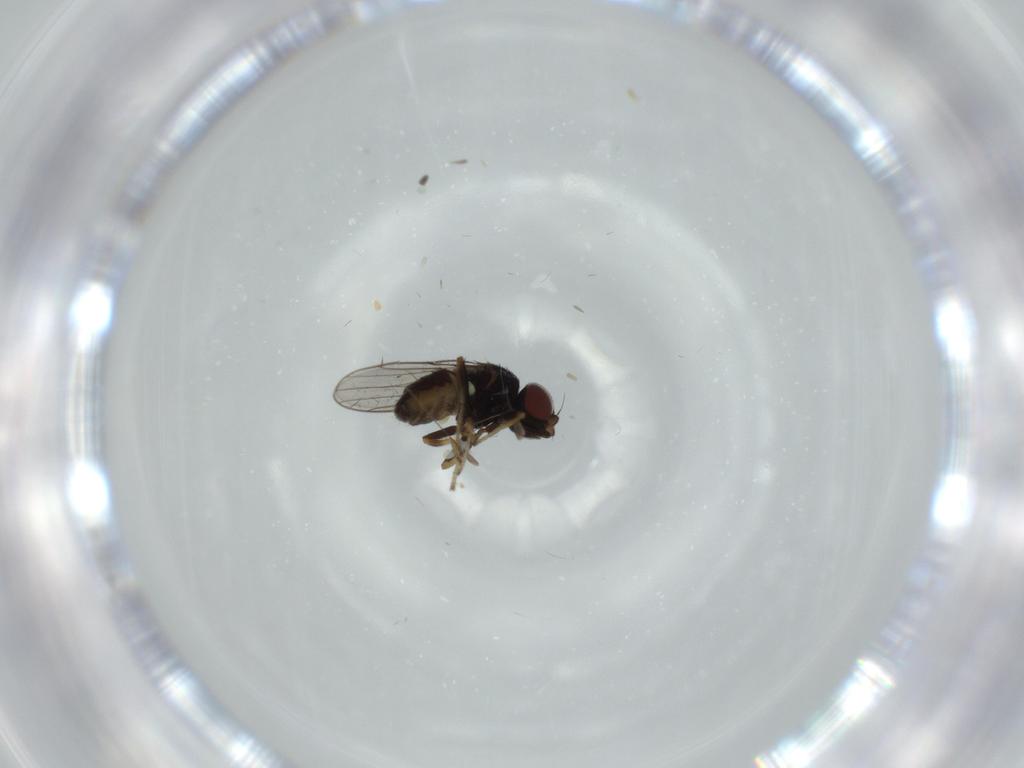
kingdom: Animalia
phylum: Arthropoda
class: Insecta
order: Diptera
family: Chloropidae
